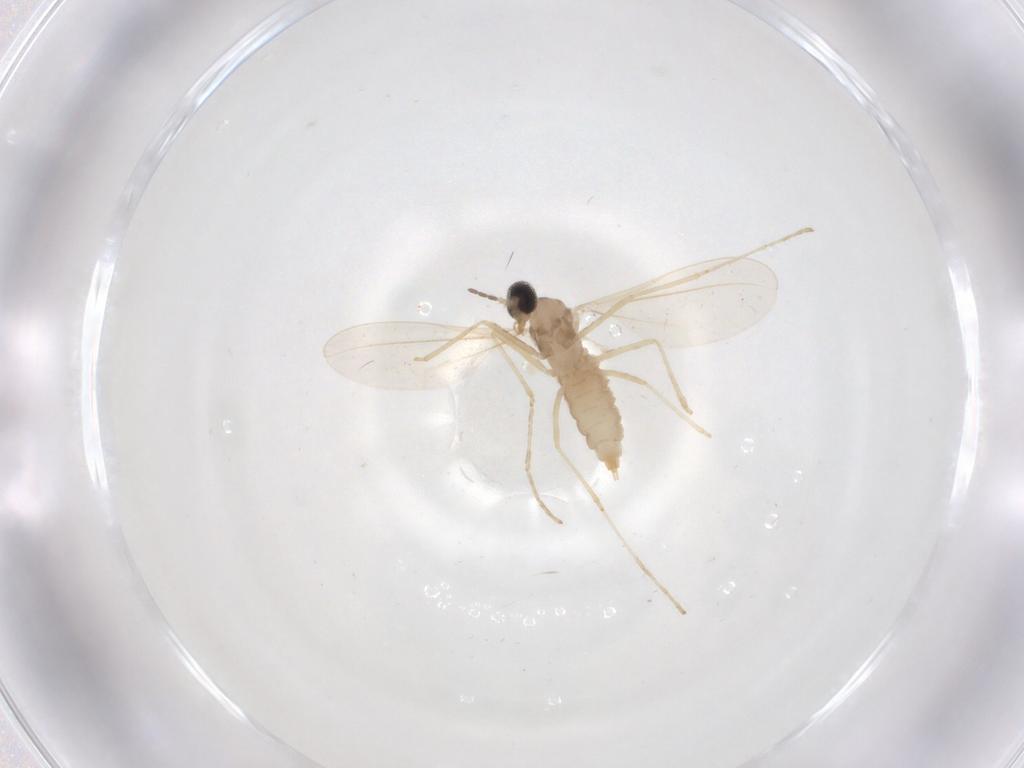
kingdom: Animalia
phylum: Arthropoda
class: Insecta
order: Diptera
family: Cecidomyiidae
